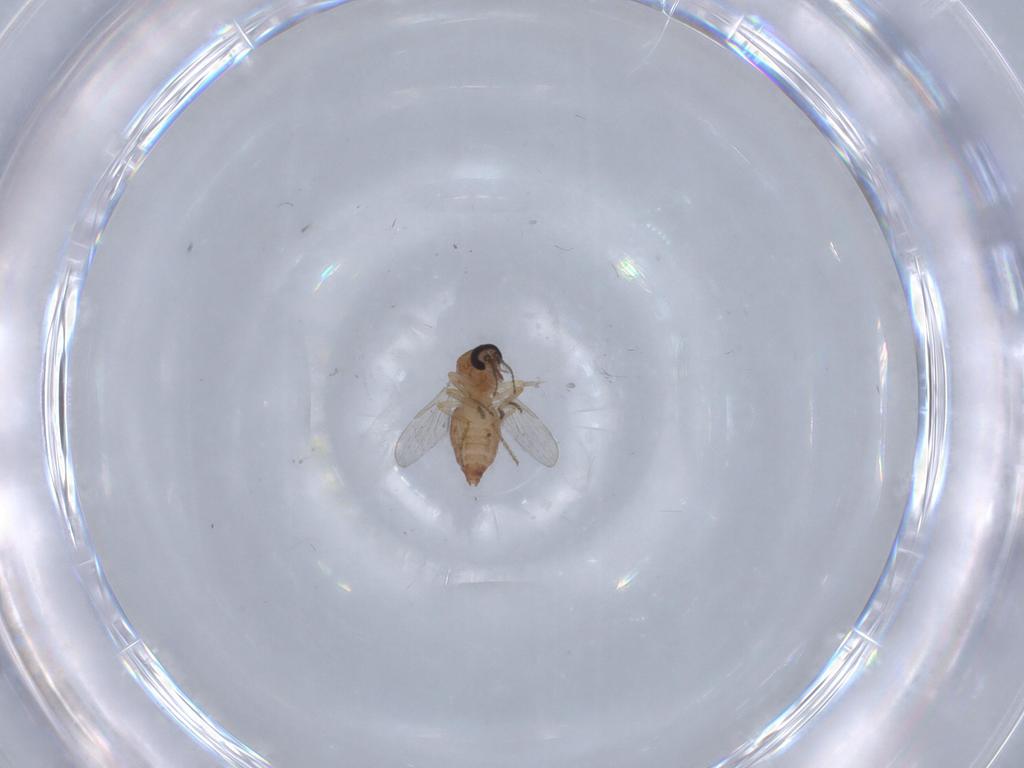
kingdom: Animalia
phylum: Arthropoda
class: Insecta
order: Diptera
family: Ceratopogonidae
